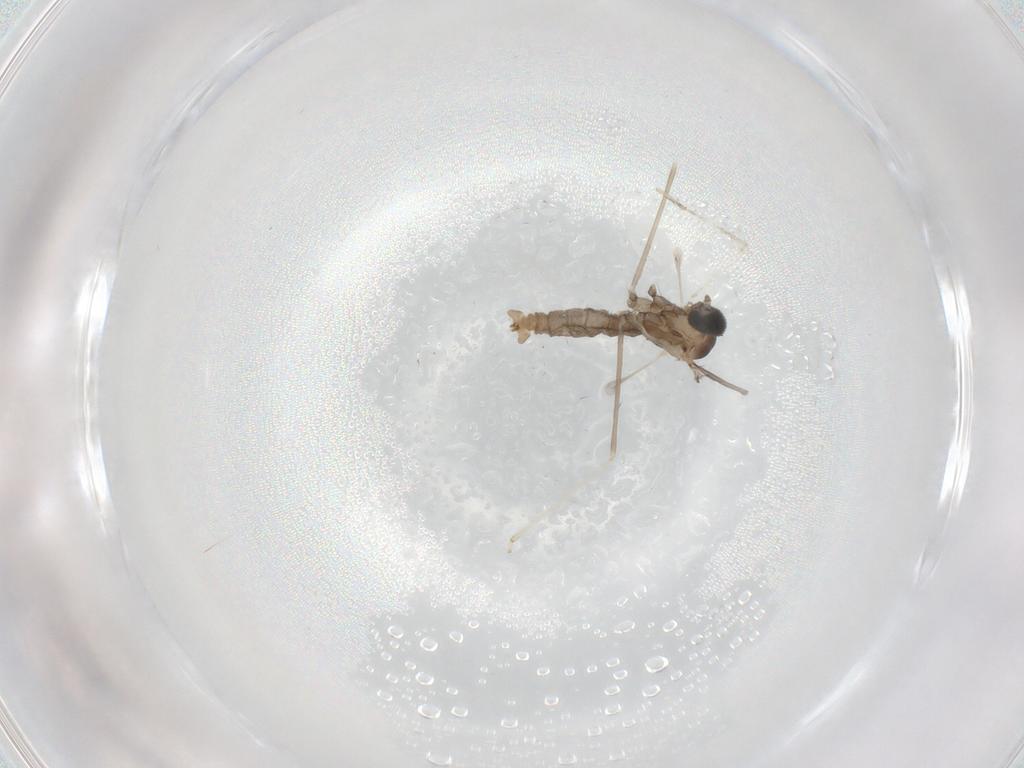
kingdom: Animalia
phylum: Arthropoda
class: Insecta
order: Diptera
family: Cecidomyiidae
